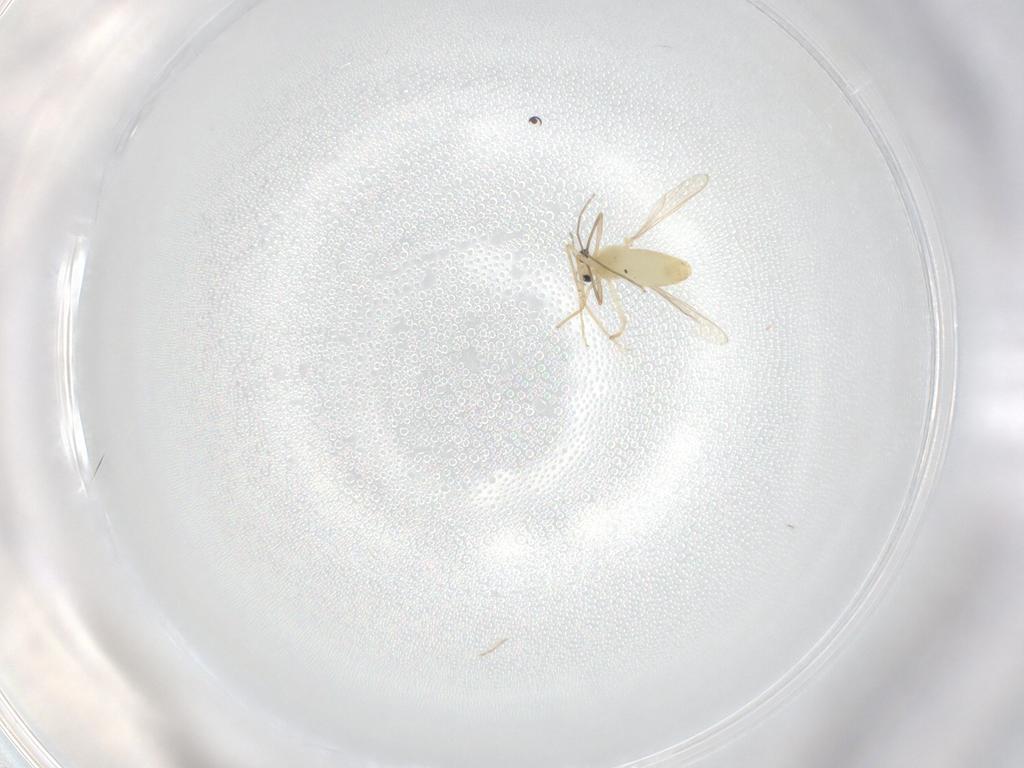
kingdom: Animalia
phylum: Arthropoda
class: Insecta
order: Diptera
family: Chironomidae
